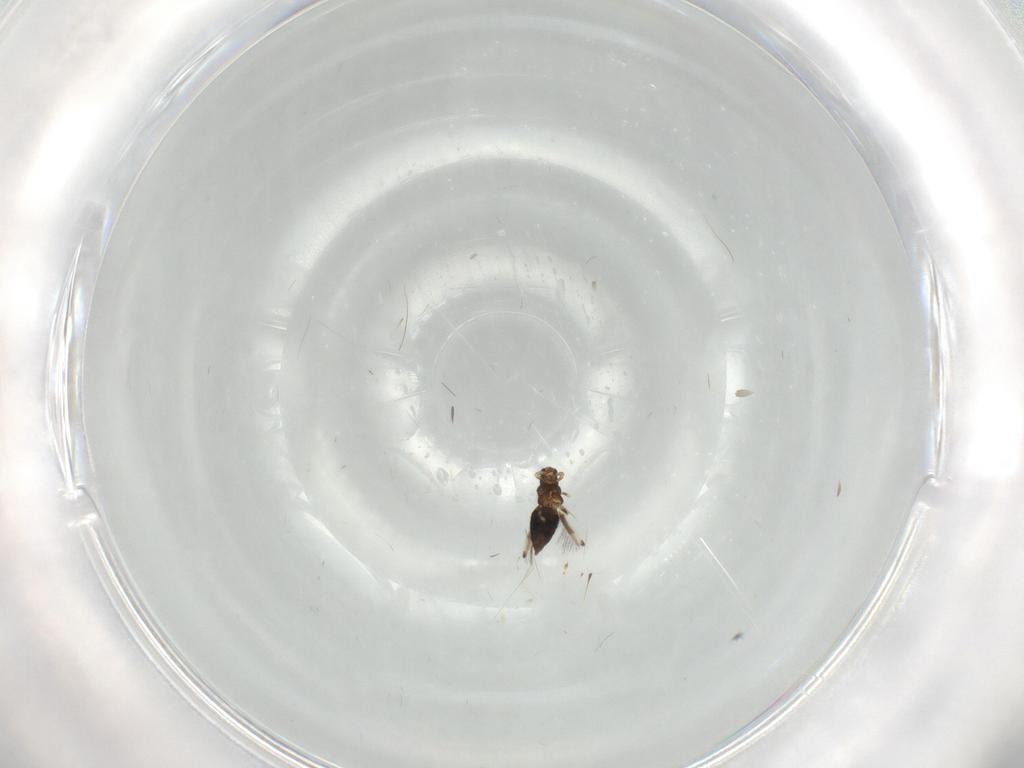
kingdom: Animalia
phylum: Arthropoda
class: Insecta
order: Thysanoptera
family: Thripidae
